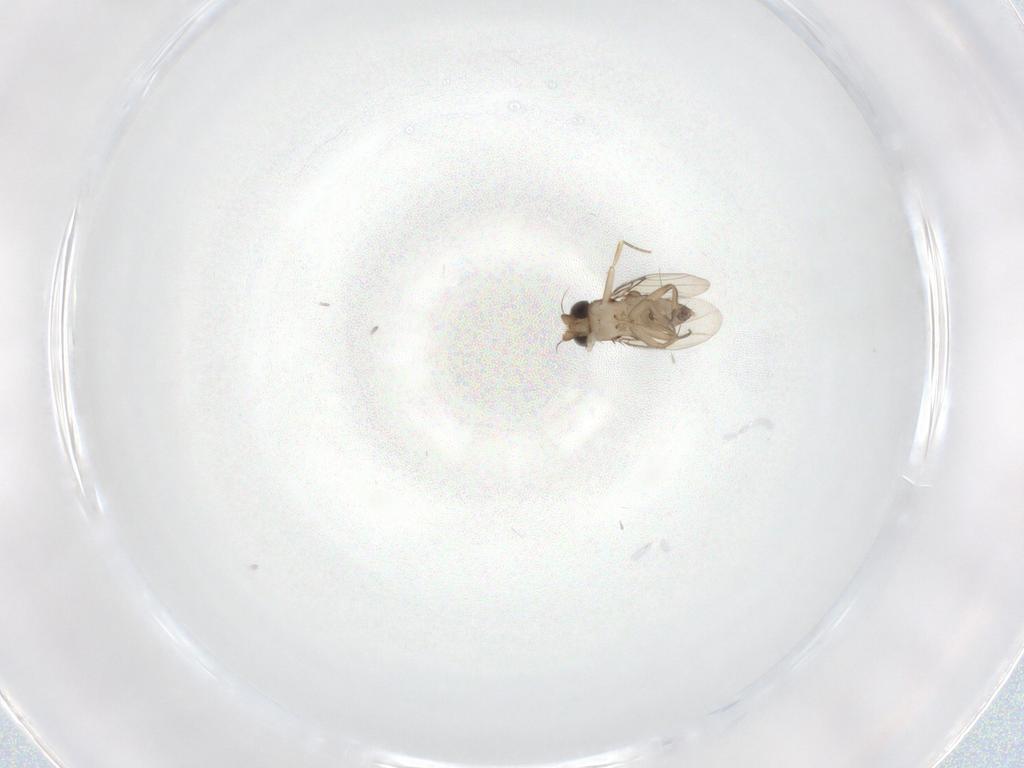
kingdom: Animalia
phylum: Arthropoda
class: Insecta
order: Diptera
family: Phoridae
